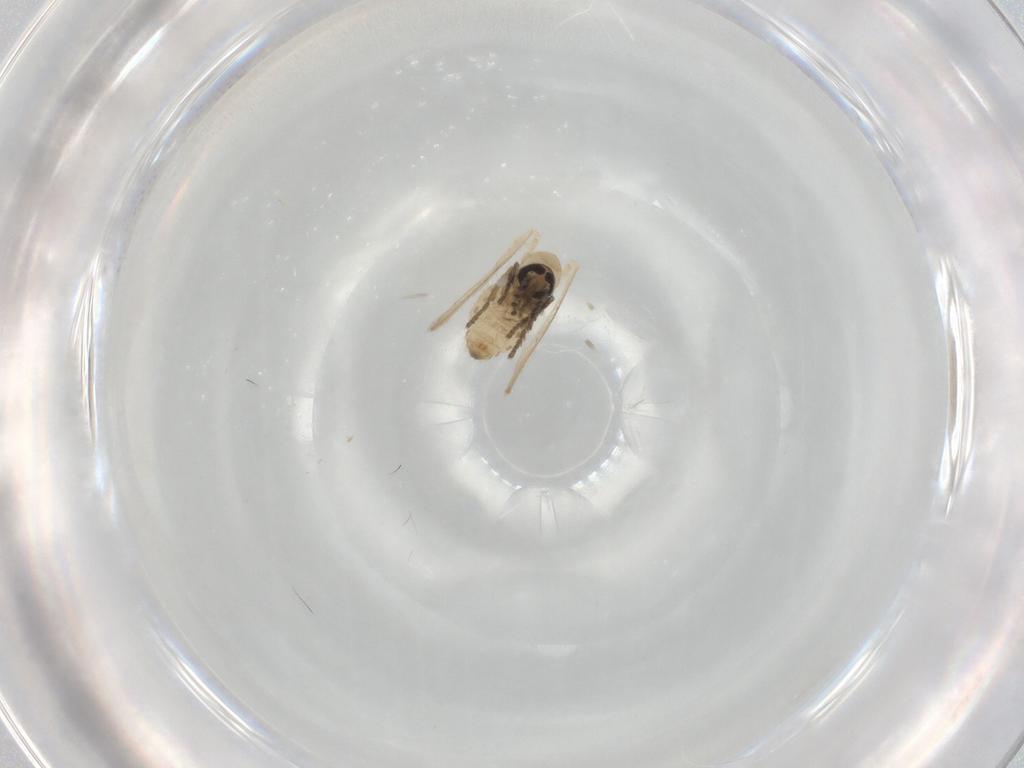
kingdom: Animalia
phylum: Arthropoda
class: Insecta
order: Diptera
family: Psychodidae
